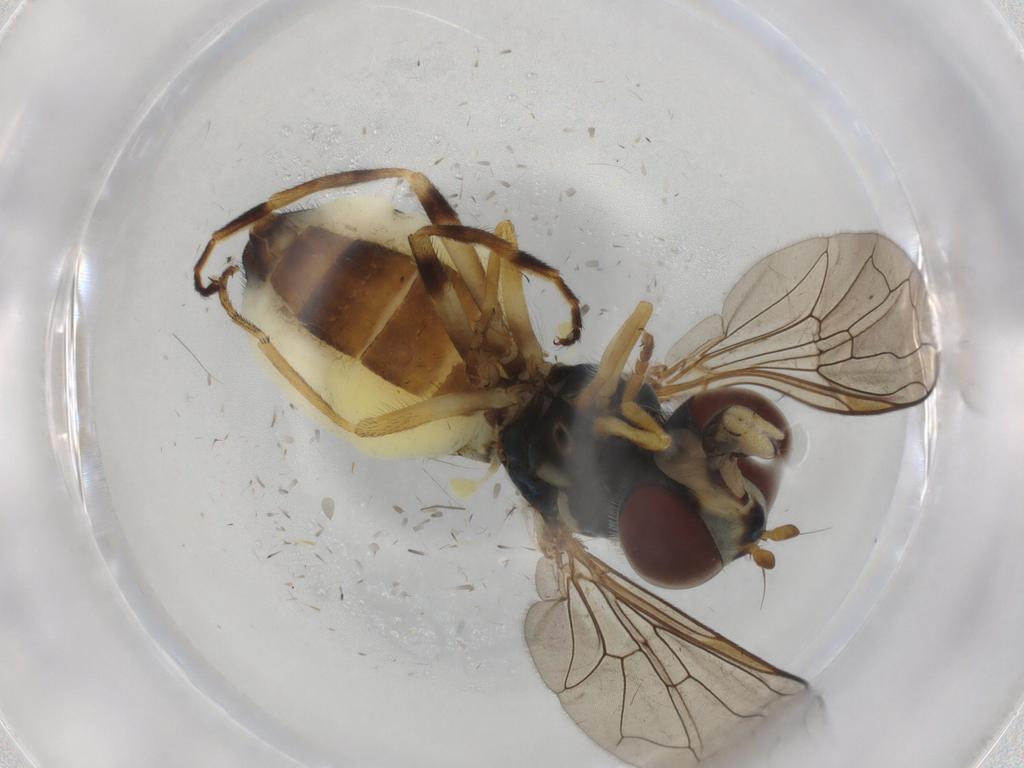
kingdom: Animalia
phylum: Arthropoda
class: Insecta
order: Diptera
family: Syrphidae
